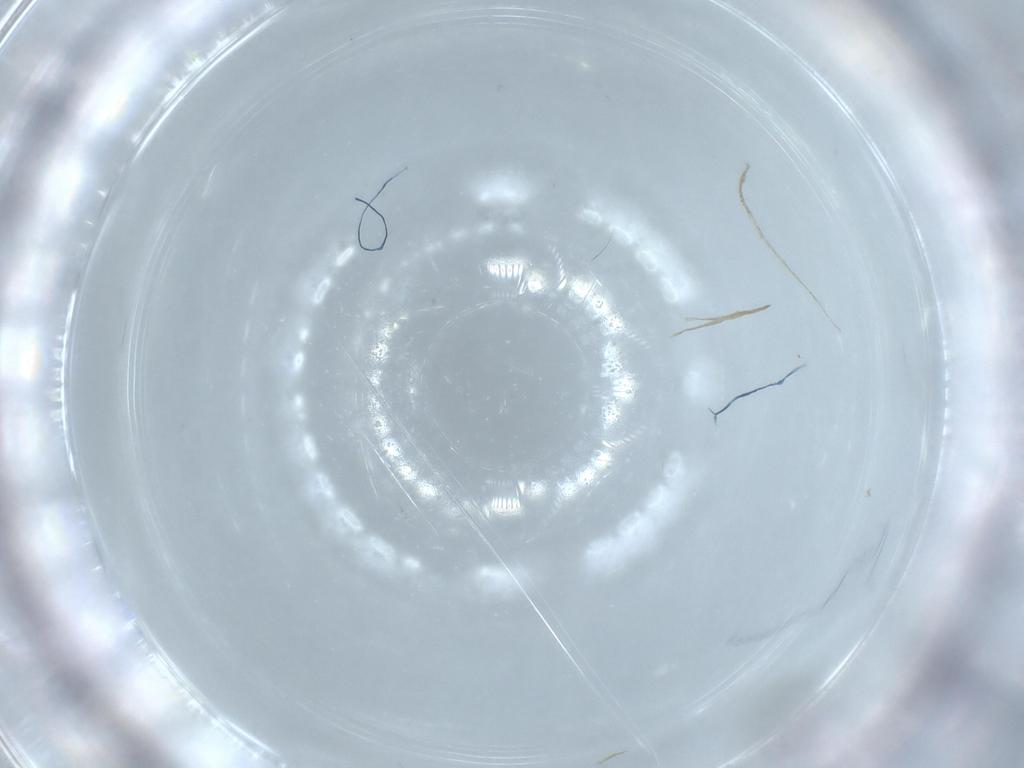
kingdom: Animalia
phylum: Arthropoda
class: Insecta
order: Diptera
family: Sciaridae
